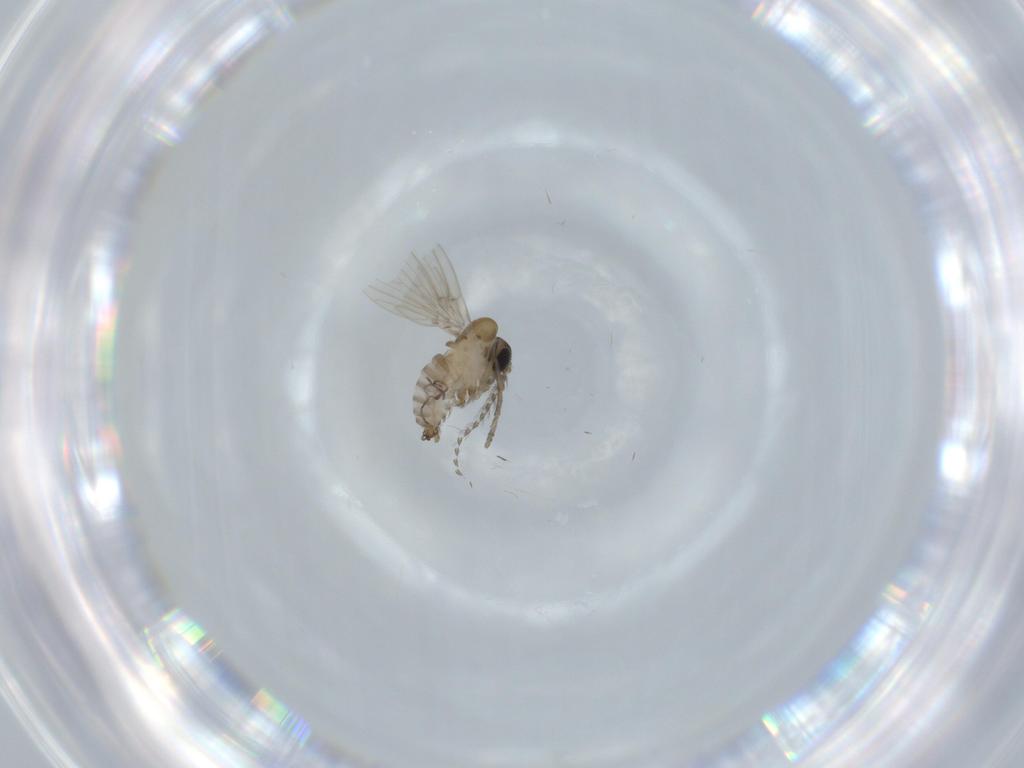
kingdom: Animalia
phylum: Arthropoda
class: Insecta
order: Diptera
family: Psychodidae
